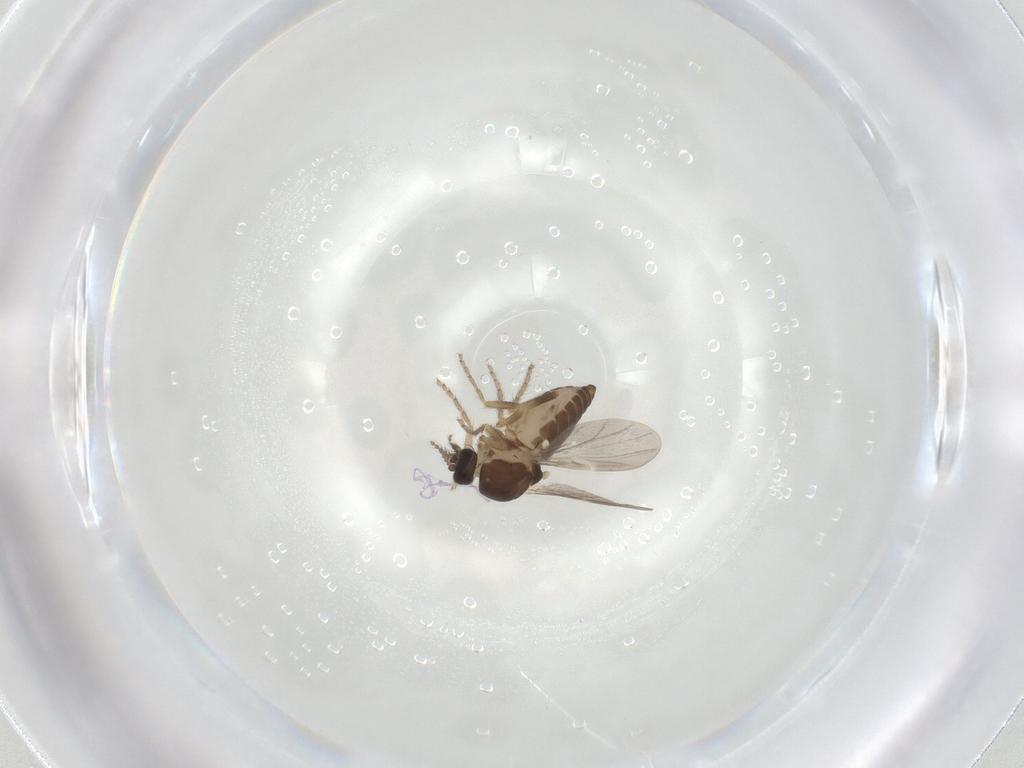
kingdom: Animalia
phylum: Arthropoda
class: Insecta
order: Diptera
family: Ceratopogonidae
